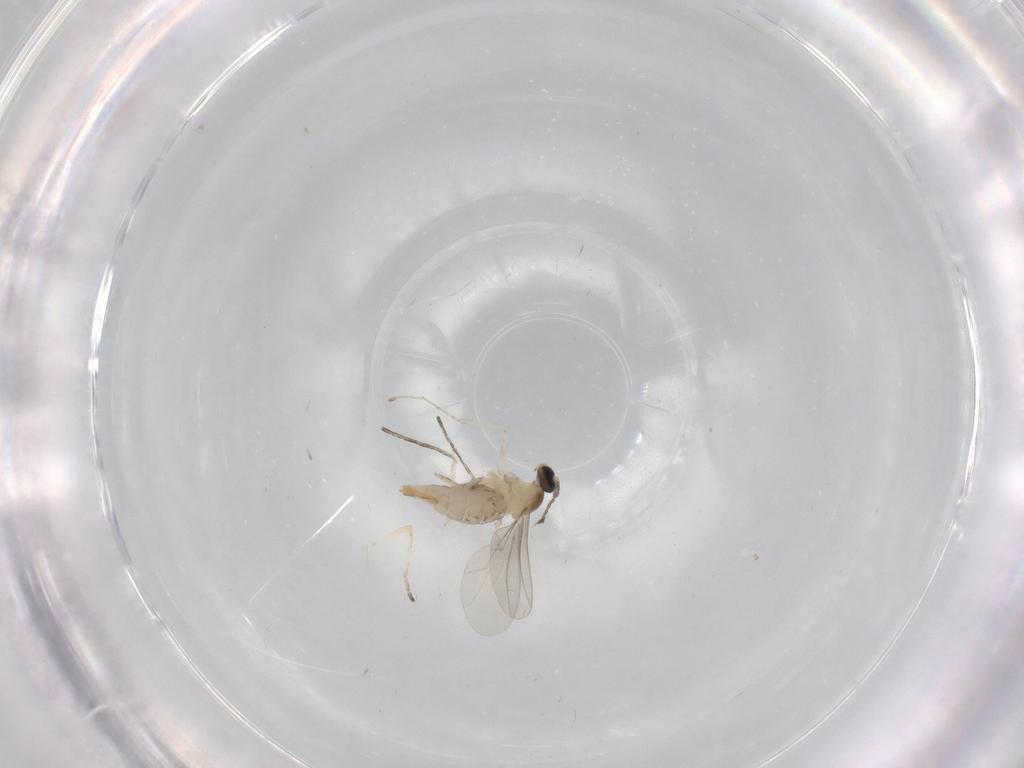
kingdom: Animalia
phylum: Arthropoda
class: Insecta
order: Diptera
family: Cecidomyiidae
